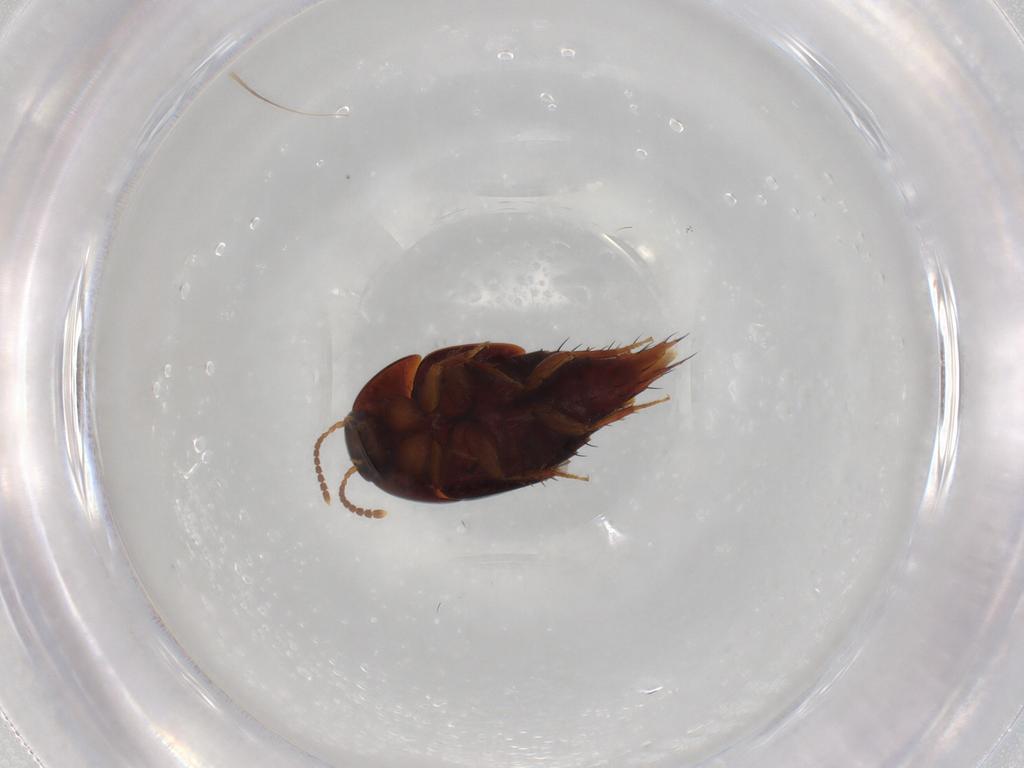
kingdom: Animalia
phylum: Arthropoda
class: Insecta
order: Coleoptera
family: Staphylinidae
